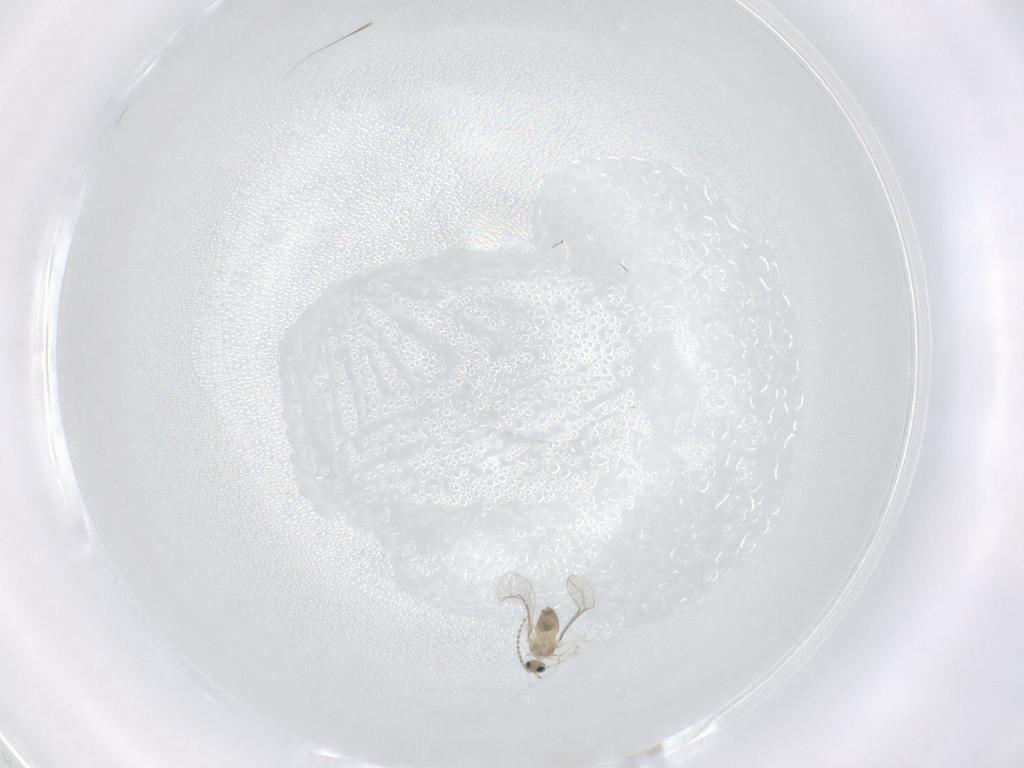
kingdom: Animalia
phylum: Arthropoda
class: Insecta
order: Diptera
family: Cecidomyiidae
